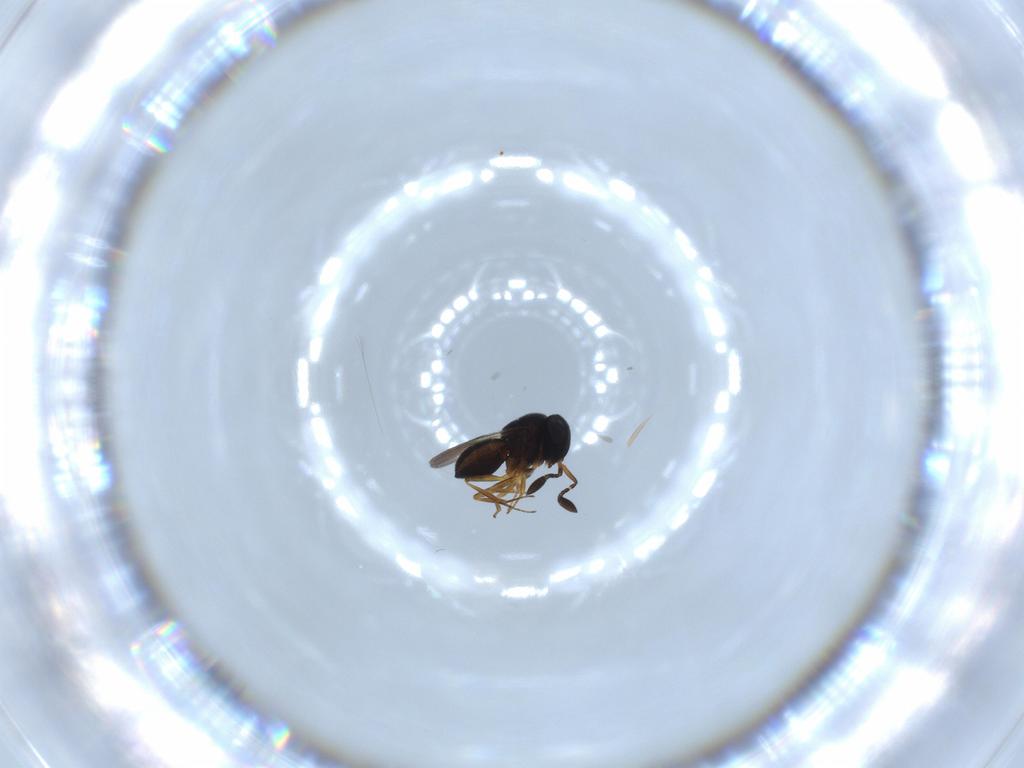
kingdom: Animalia
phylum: Arthropoda
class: Insecta
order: Hymenoptera
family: Scelionidae
